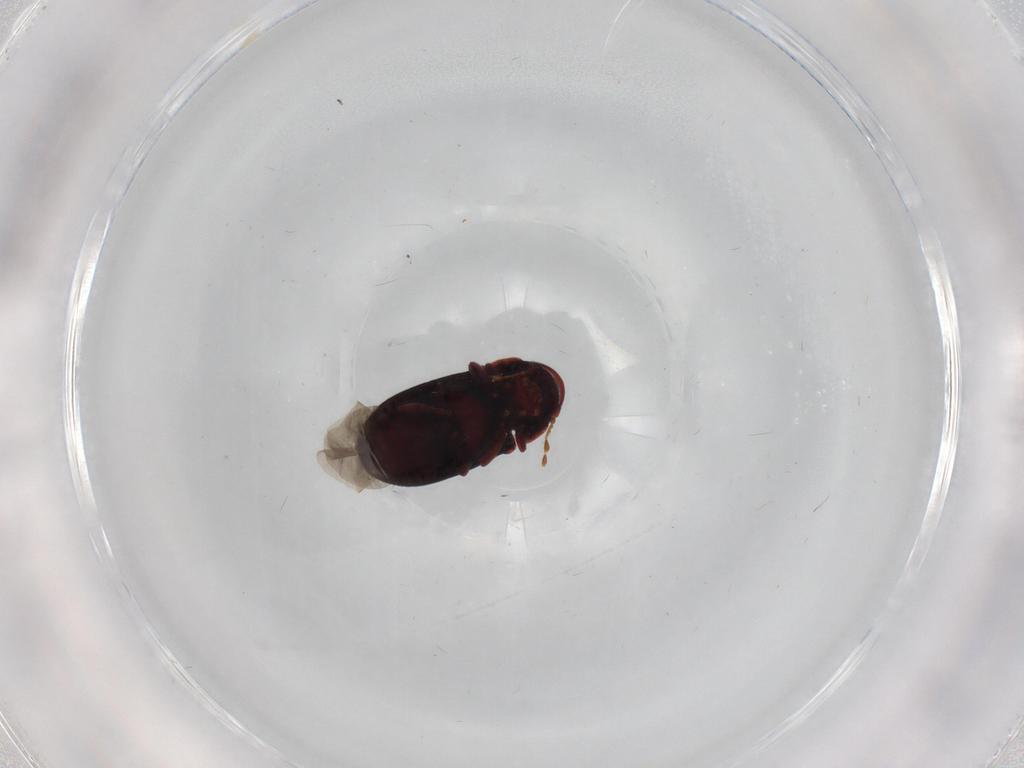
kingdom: Animalia
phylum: Arthropoda
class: Insecta
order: Coleoptera
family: Ptinidae
